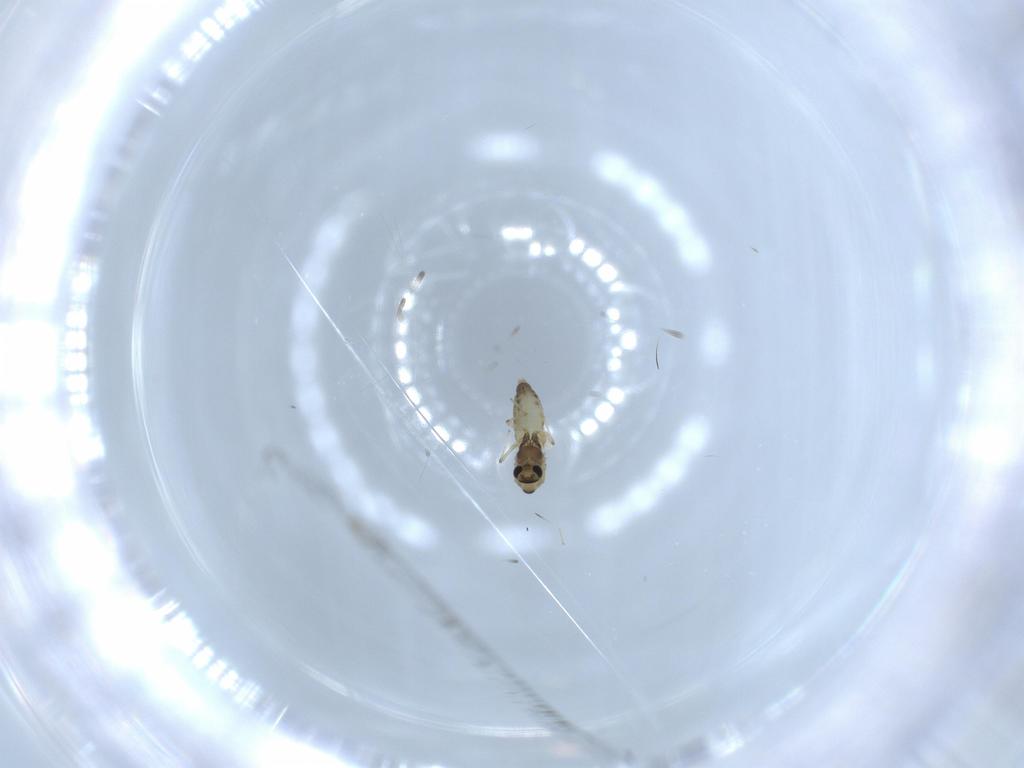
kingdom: Animalia
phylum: Arthropoda
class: Insecta
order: Diptera
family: Chironomidae
